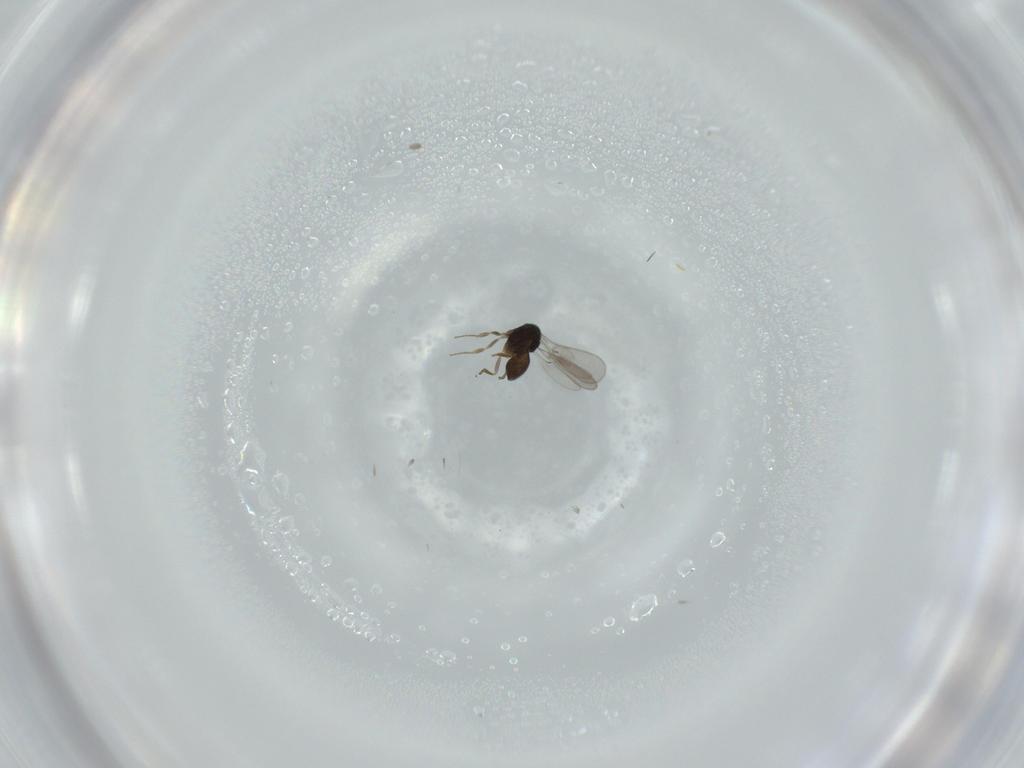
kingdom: Animalia
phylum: Arthropoda
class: Insecta
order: Hymenoptera
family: Scelionidae
